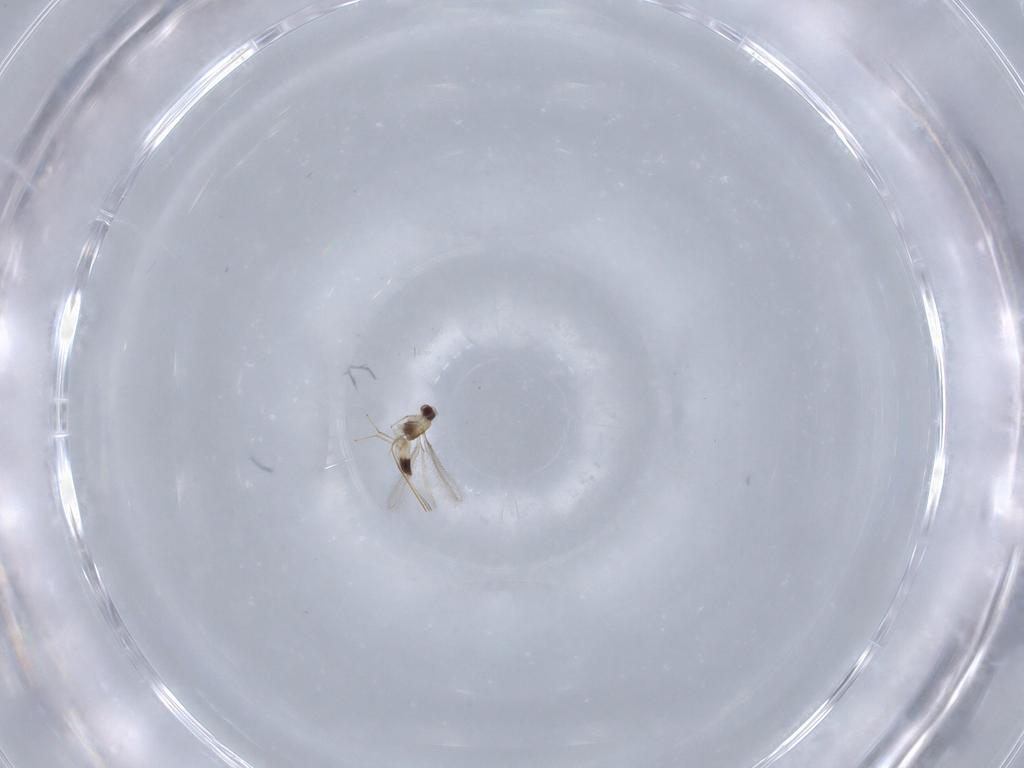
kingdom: Animalia
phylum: Arthropoda
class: Insecta
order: Hymenoptera
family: Mymaridae
